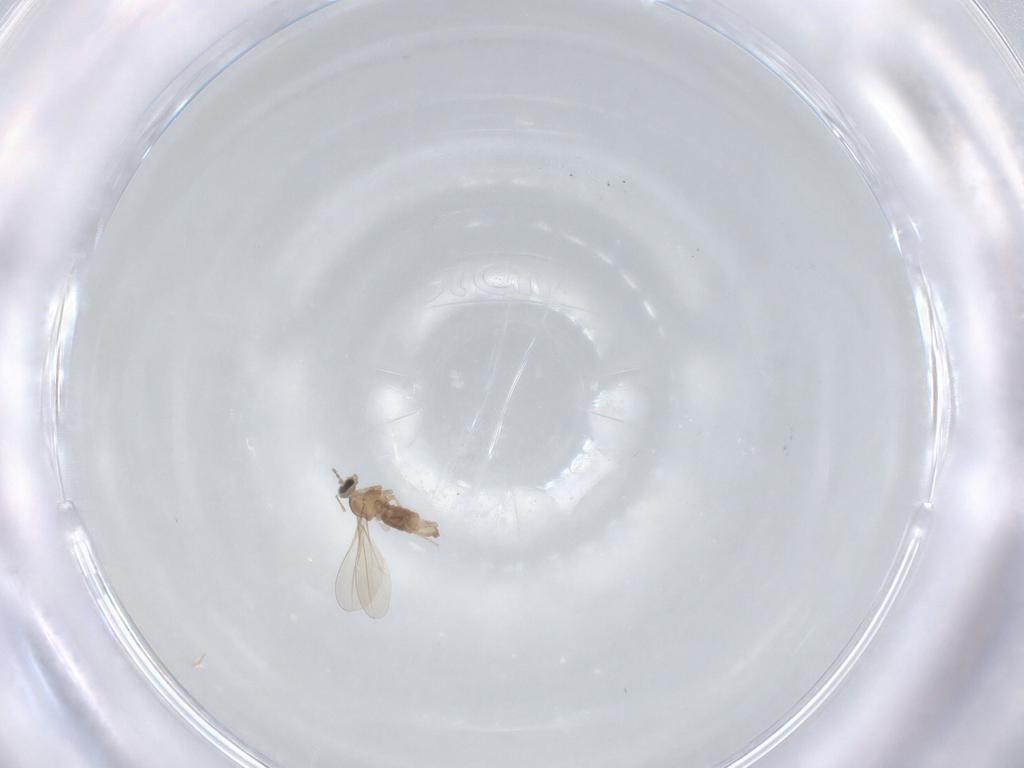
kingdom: Animalia
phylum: Arthropoda
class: Insecta
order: Diptera
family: Cecidomyiidae
